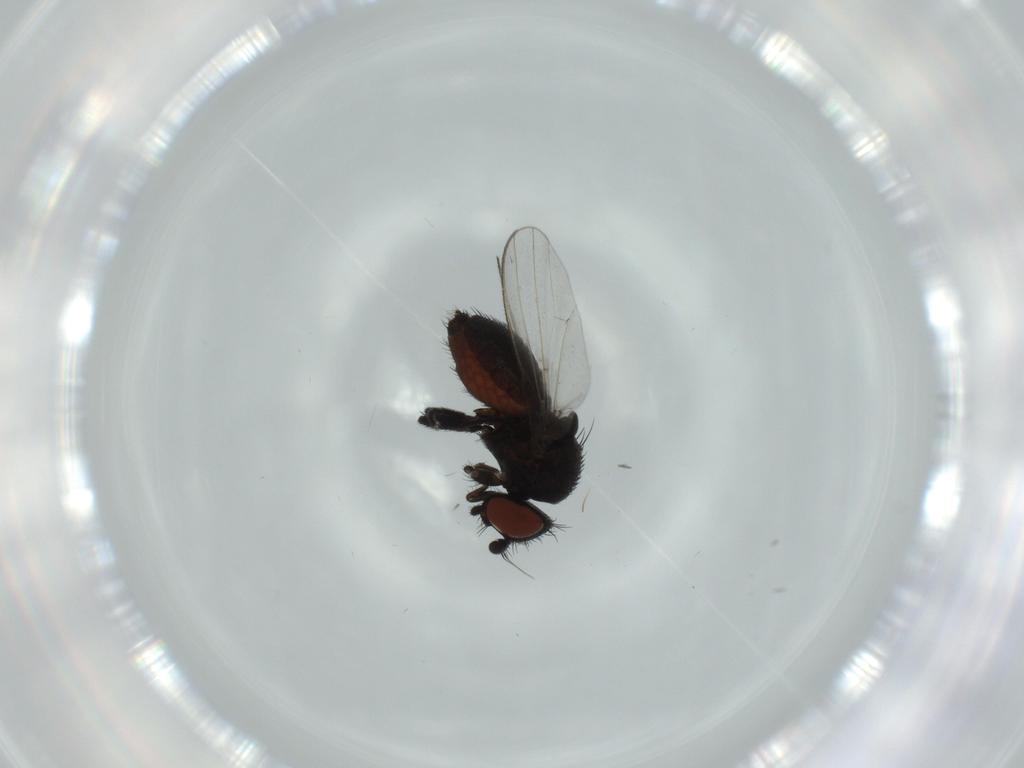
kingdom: Animalia
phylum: Arthropoda
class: Insecta
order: Diptera
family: Milichiidae
